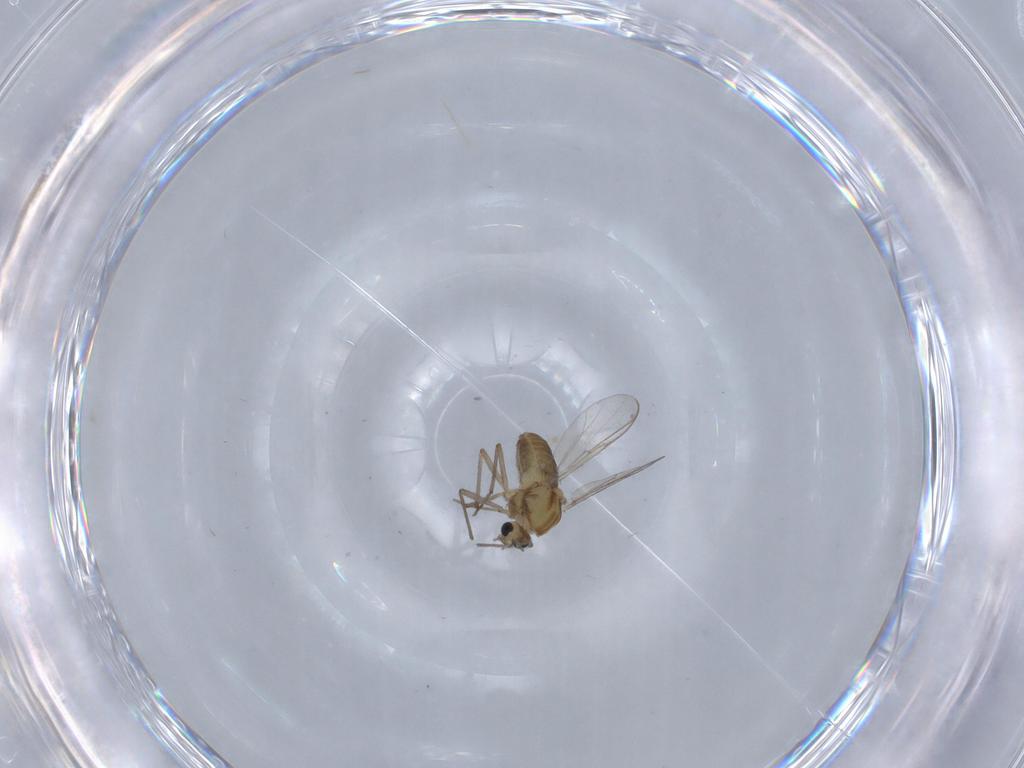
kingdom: Animalia
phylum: Arthropoda
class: Insecta
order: Diptera
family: Chironomidae
